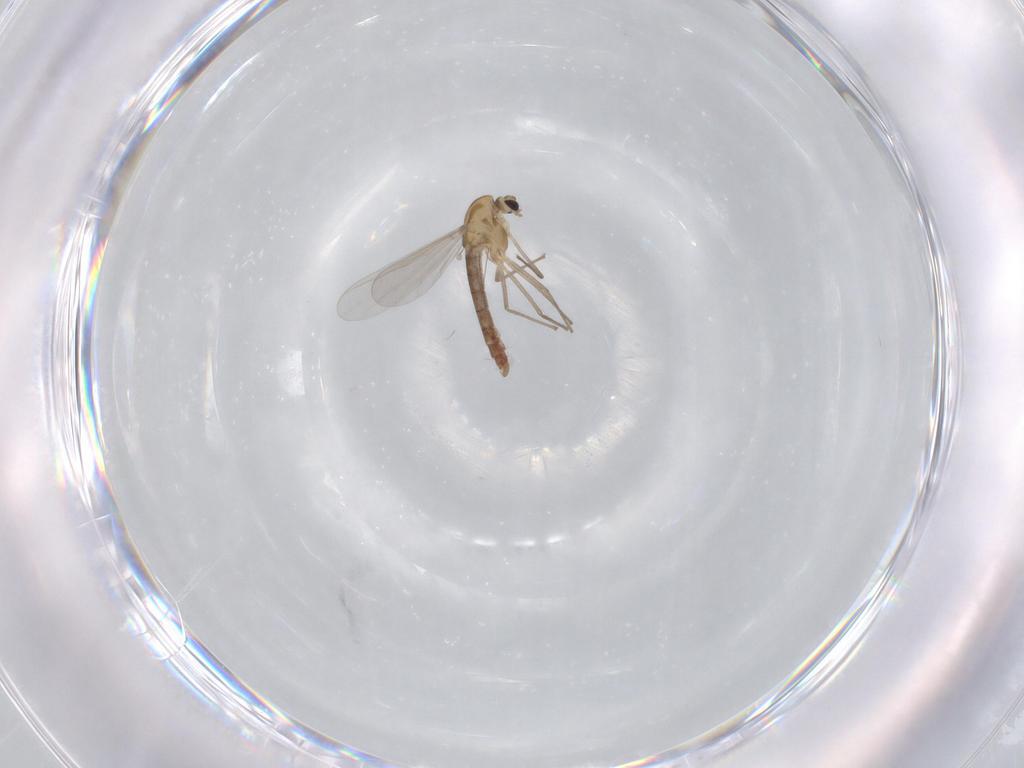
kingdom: Animalia
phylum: Arthropoda
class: Insecta
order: Diptera
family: Chironomidae
